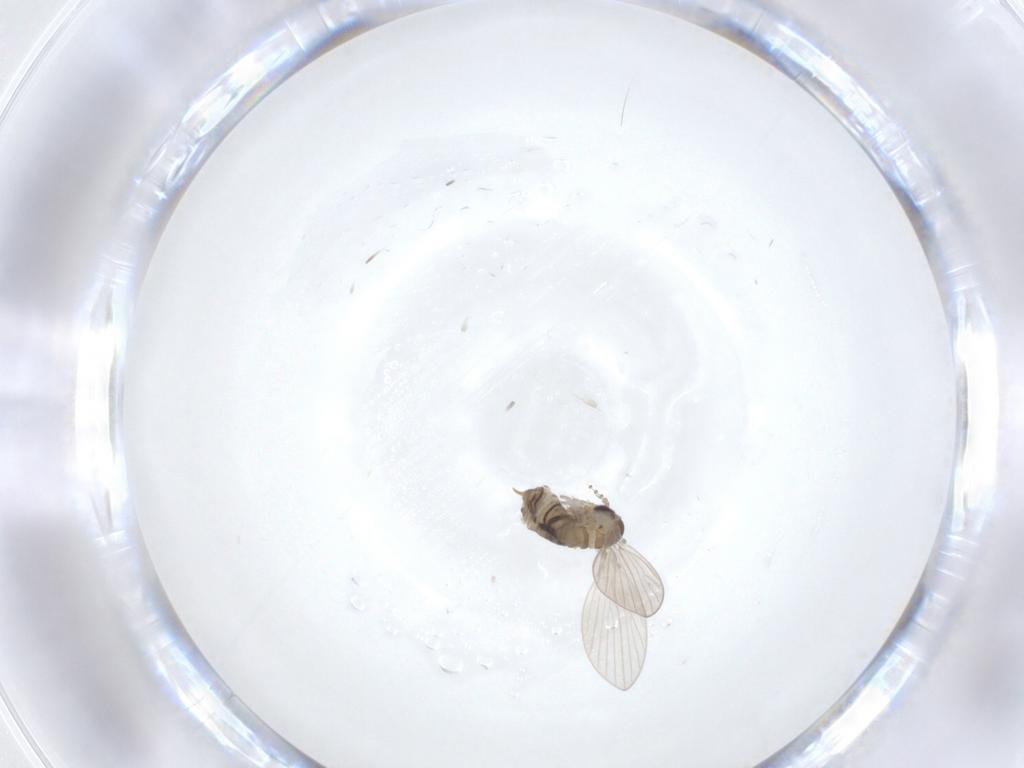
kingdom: Animalia
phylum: Arthropoda
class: Insecta
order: Diptera
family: Psychodidae
